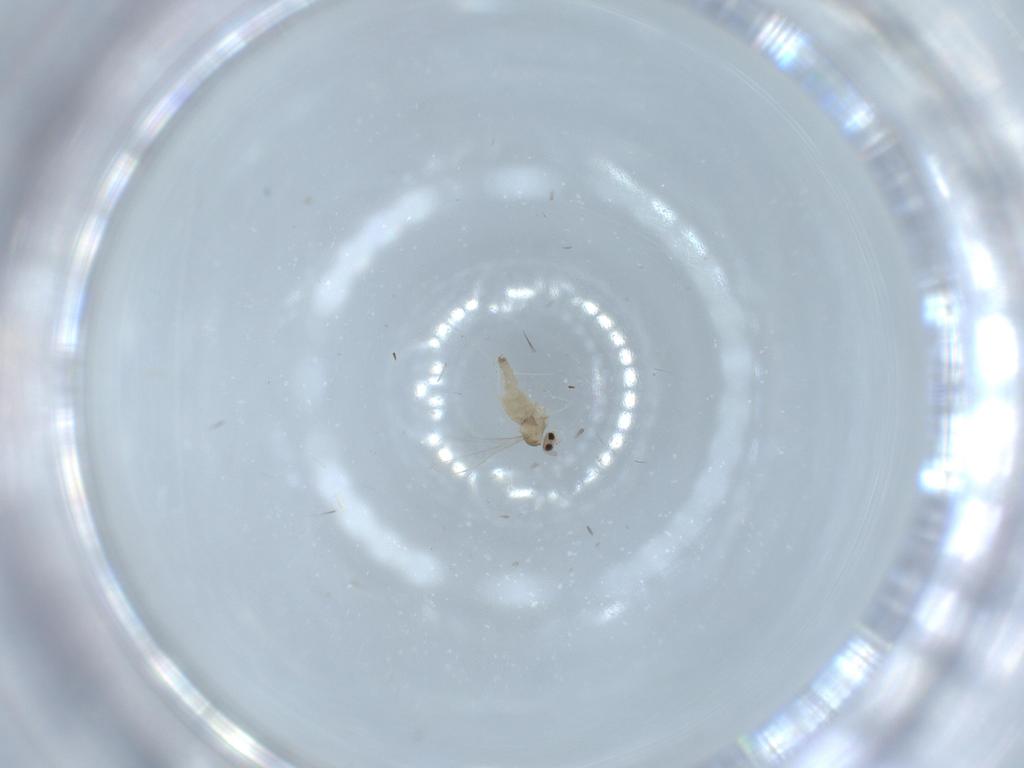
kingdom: Animalia
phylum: Arthropoda
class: Insecta
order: Diptera
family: Cecidomyiidae
